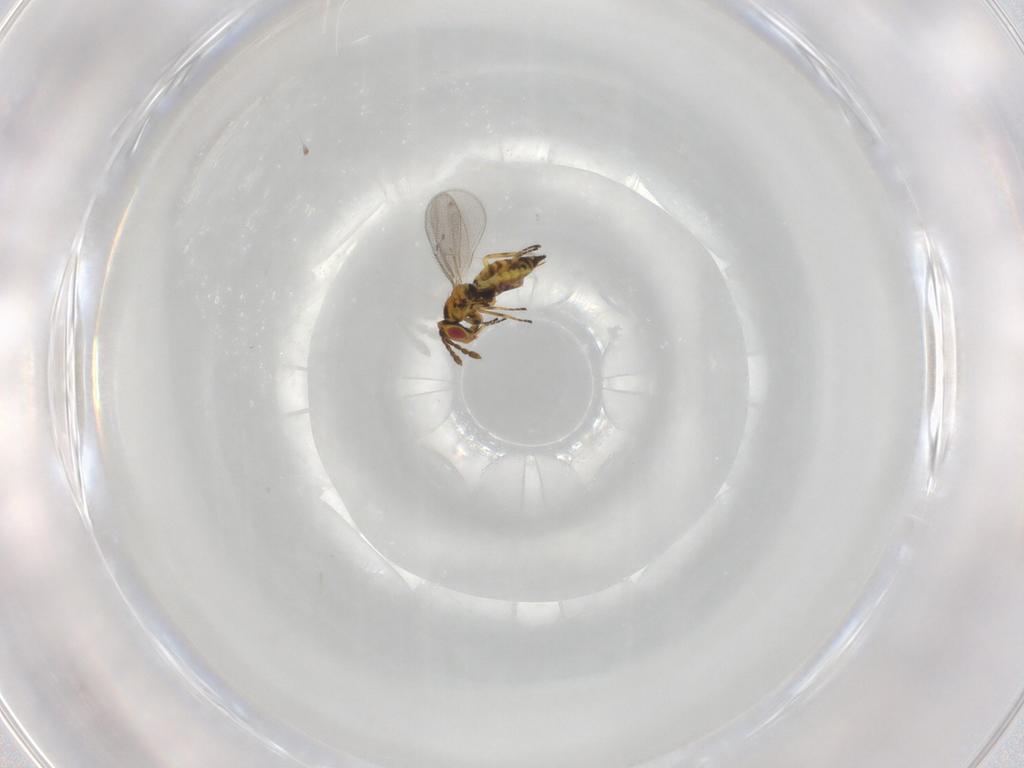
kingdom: Animalia
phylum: Arthropoda
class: Insecta
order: Hymenoptera
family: Eulophidae
